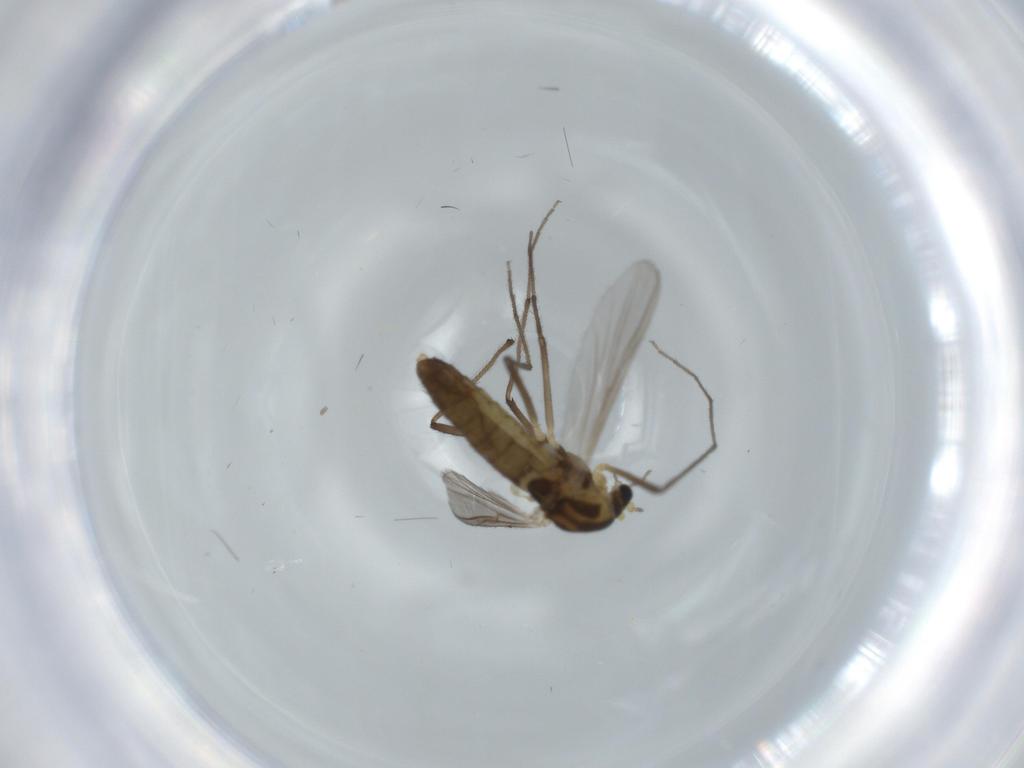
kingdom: Animalia
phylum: Arthropoda
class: Insecta
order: Diptera
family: Chironomidae
